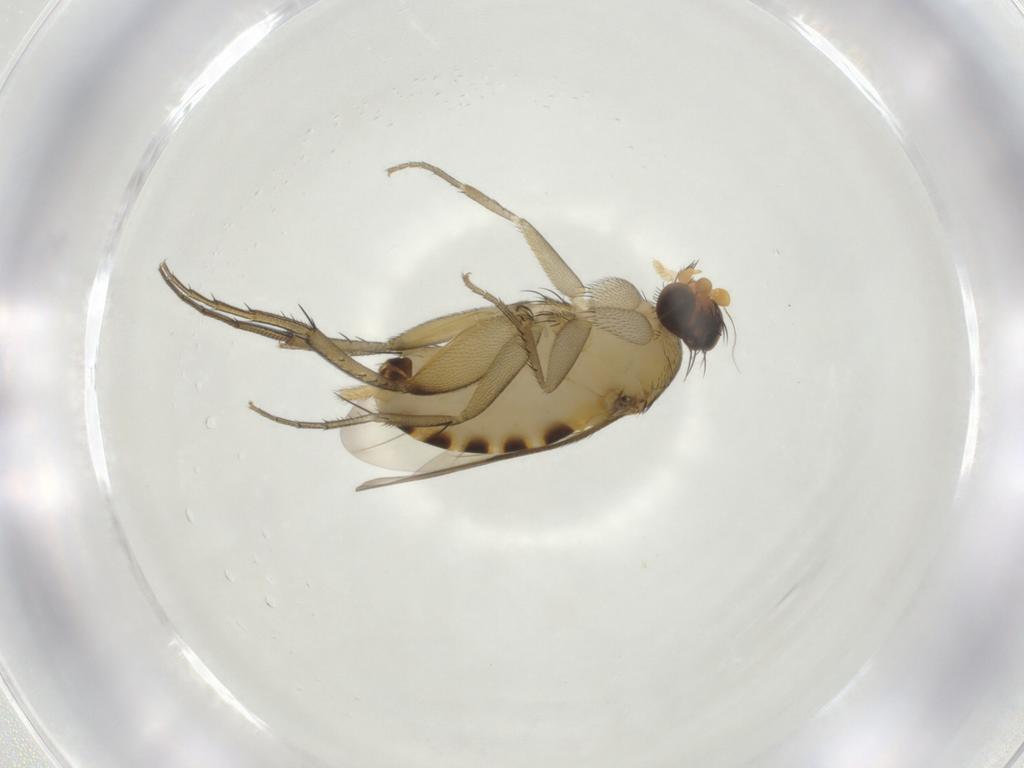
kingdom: Animalia
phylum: Arthropoda
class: Insecta
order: Diptera
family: Phoridae
